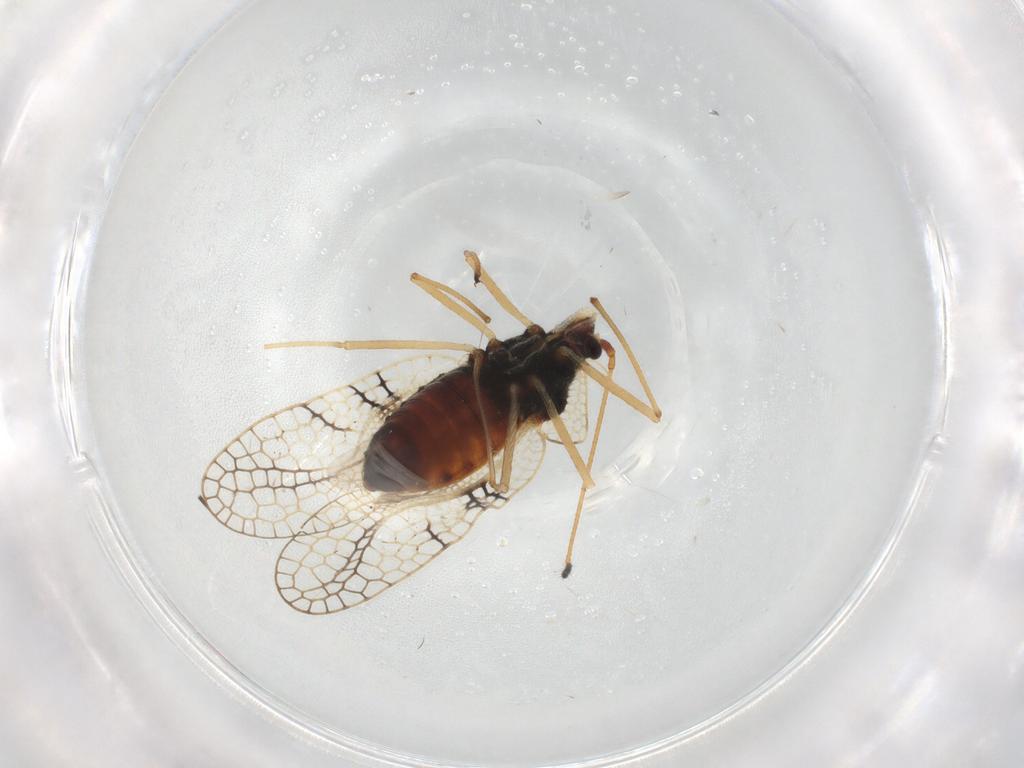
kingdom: Animalia
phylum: Arthropoda
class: Insecta
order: Hemiptera
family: Tingidae
